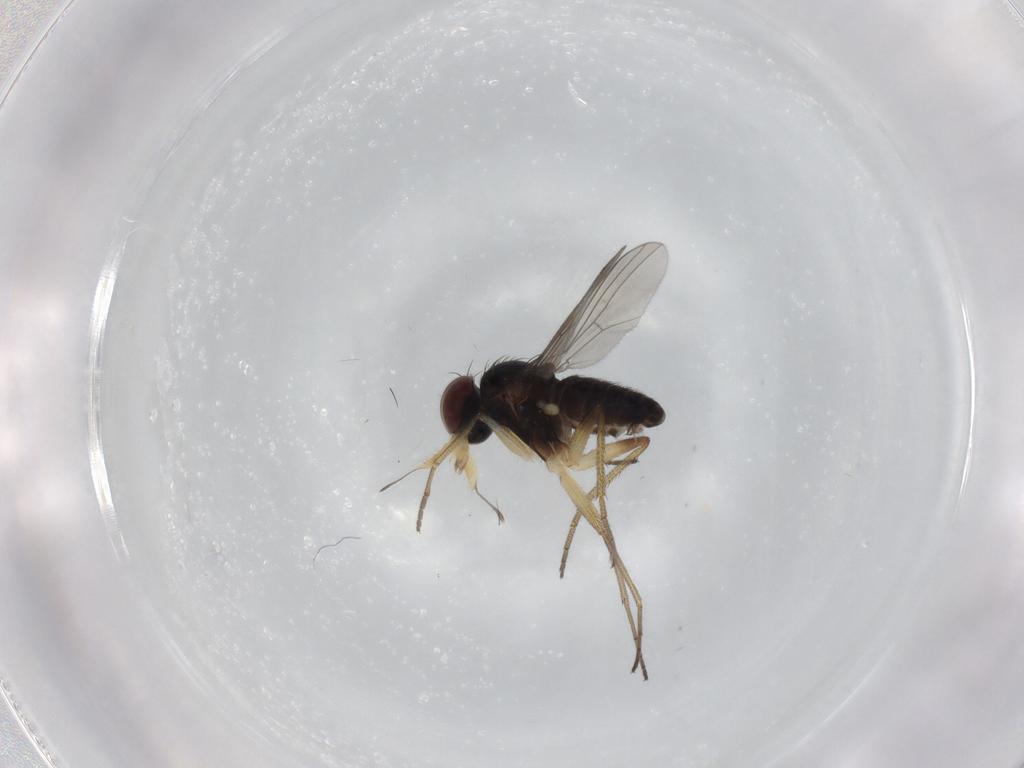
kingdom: Animalia
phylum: Arthropoda
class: Insecta
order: Diptera
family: Dolichopodidae
